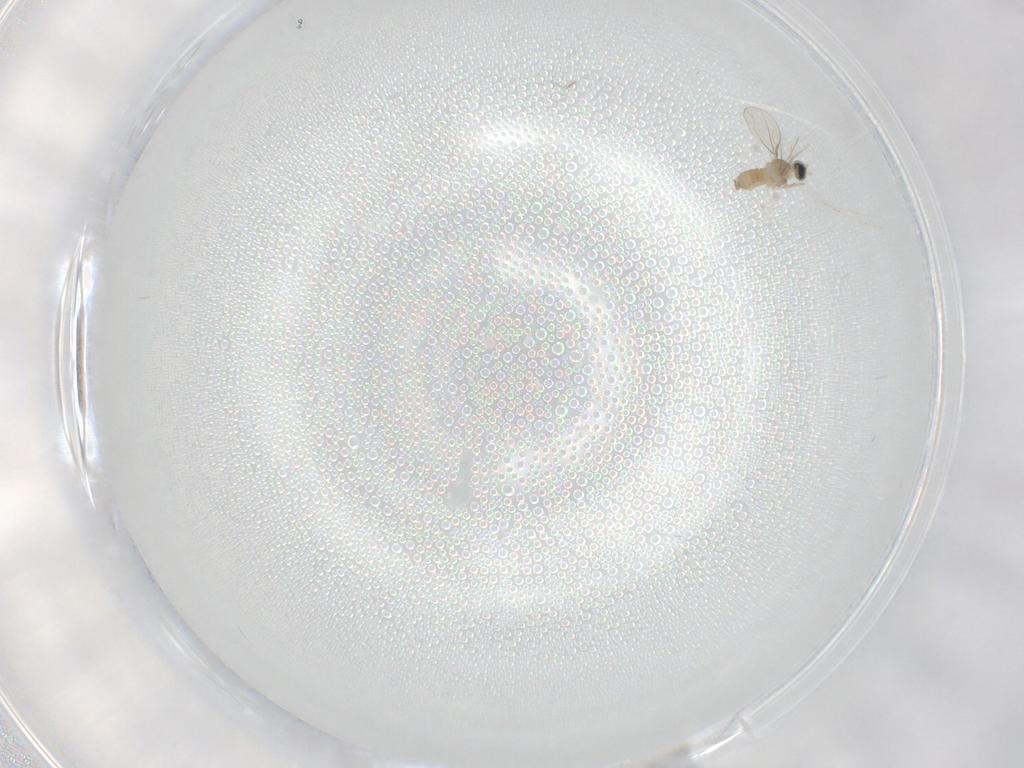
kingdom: Animalia
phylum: Arthropoda
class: Insecta
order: Diptera
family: Cecidomyiidae
